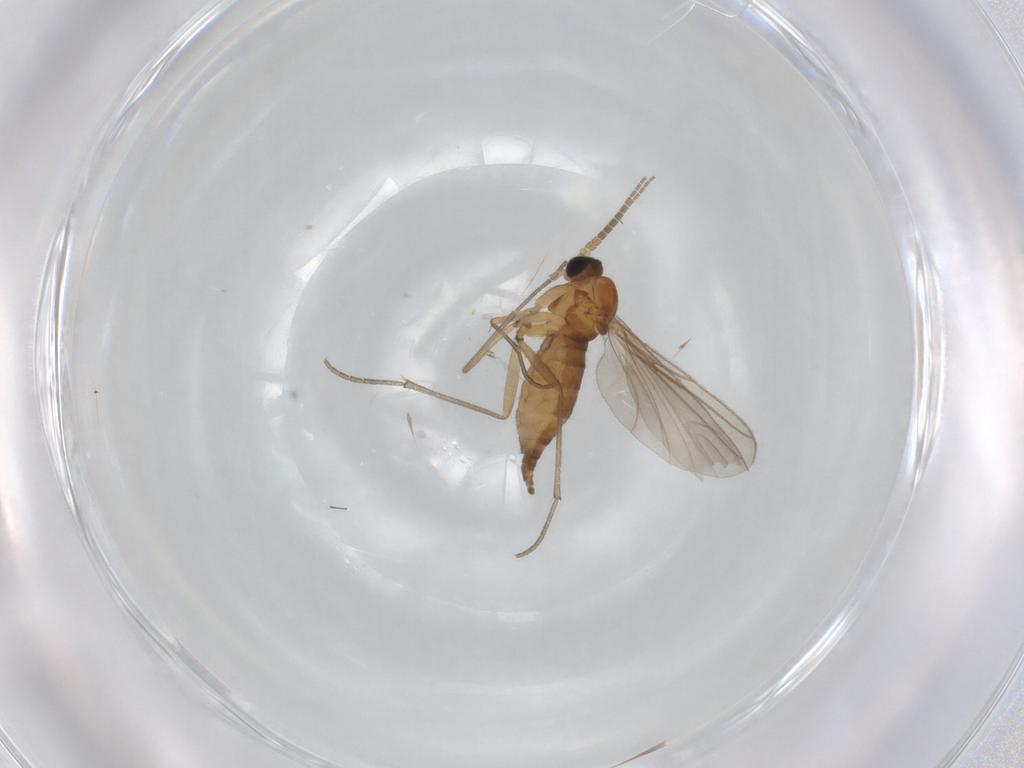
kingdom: Animalia
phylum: Arthropoda
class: Insecta
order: Diptera
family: Sciaridae
